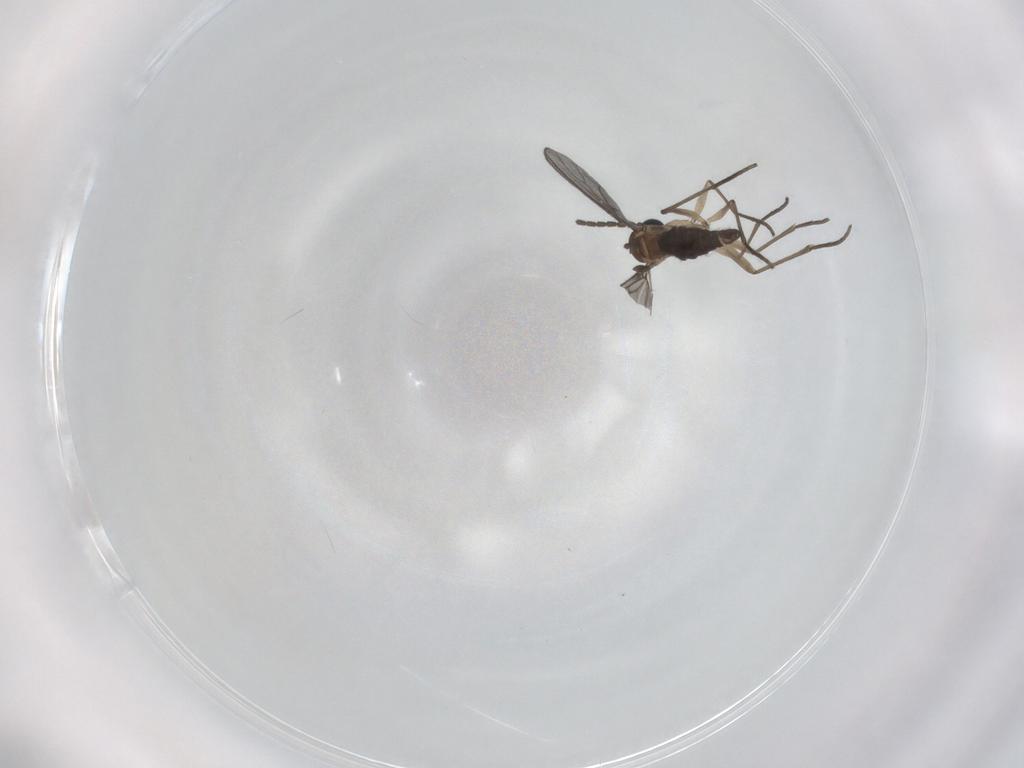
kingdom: Animalia
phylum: Arthropoda
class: Insecta
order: Diptera
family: Sciaridae
